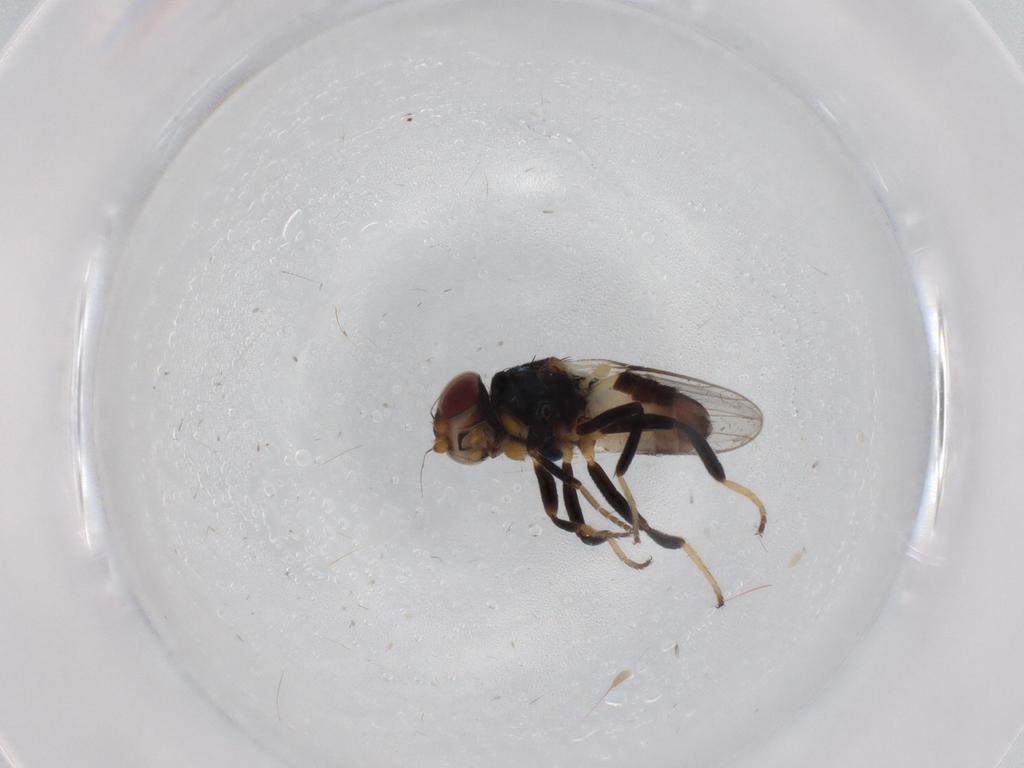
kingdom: Animalia
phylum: Arthropoda
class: Insecta
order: Diptera
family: Chloropidae
